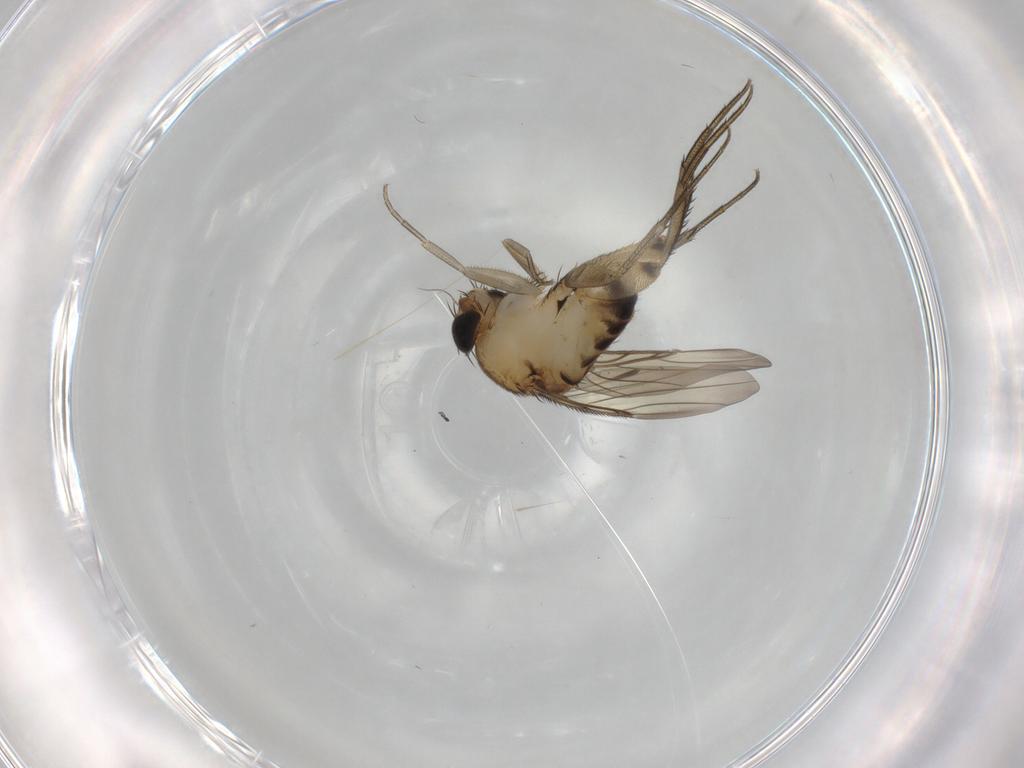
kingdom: Animalia
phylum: Arthropoda
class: Insecta
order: Diptera
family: Phoridae
